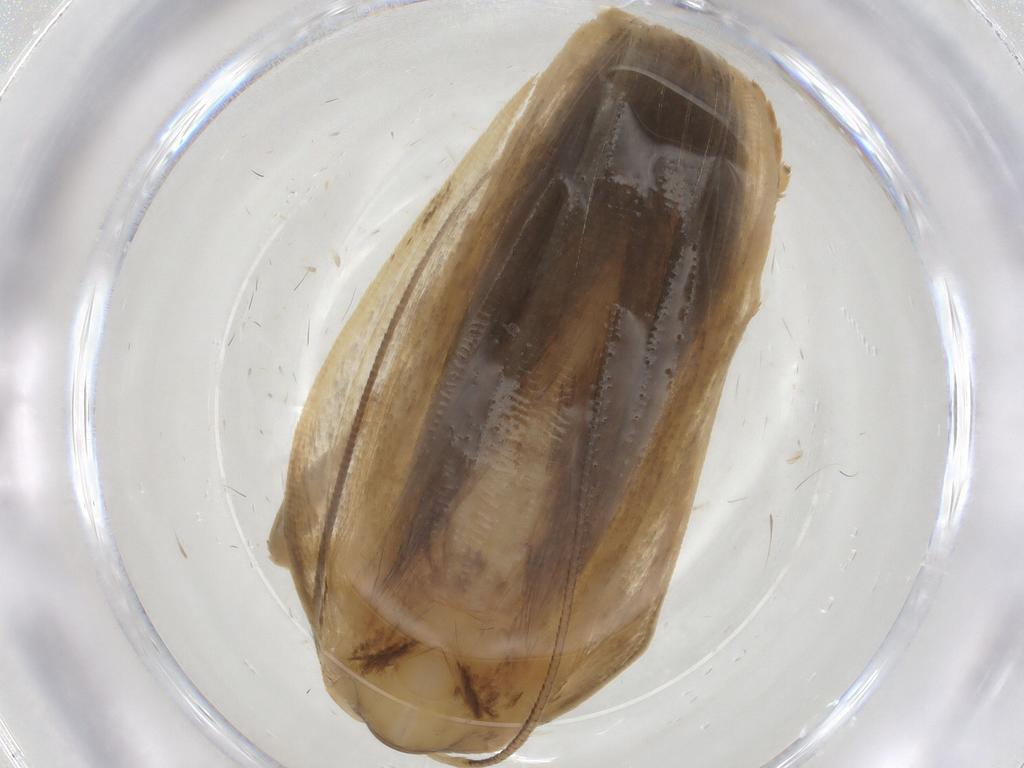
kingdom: Animalia
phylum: Arthropoda
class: Insecta
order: Lepidoptera
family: Depressariidae
